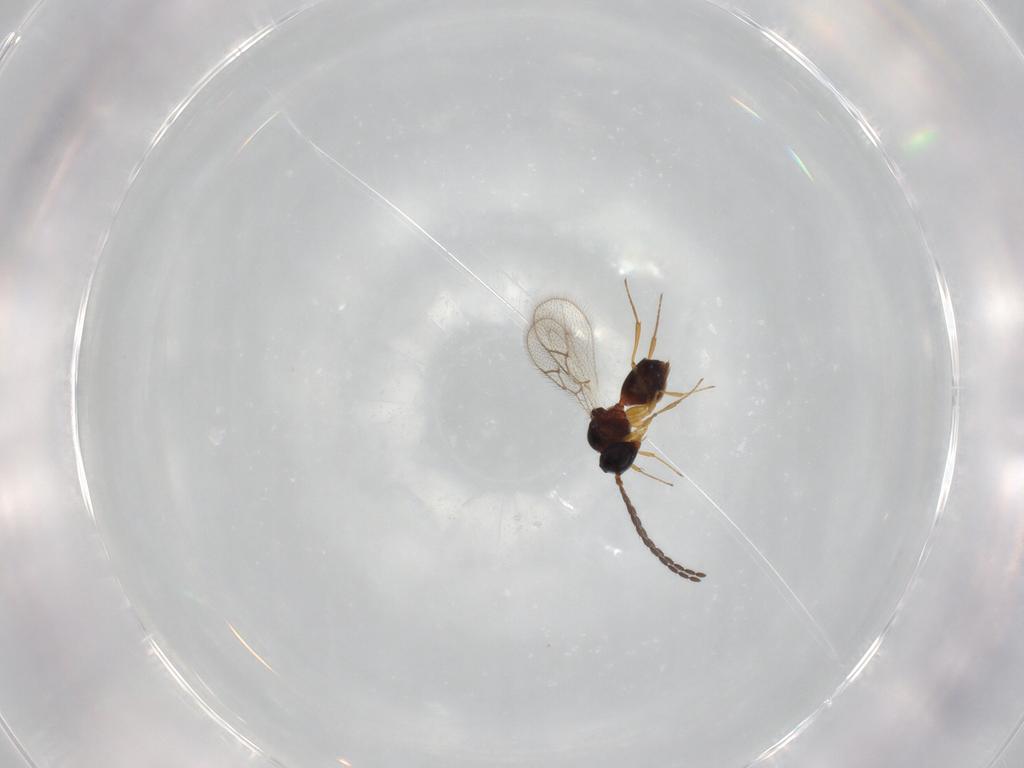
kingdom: Animalia
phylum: Arthropoda
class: Insecta
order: Hymenoptera
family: Figitidae
